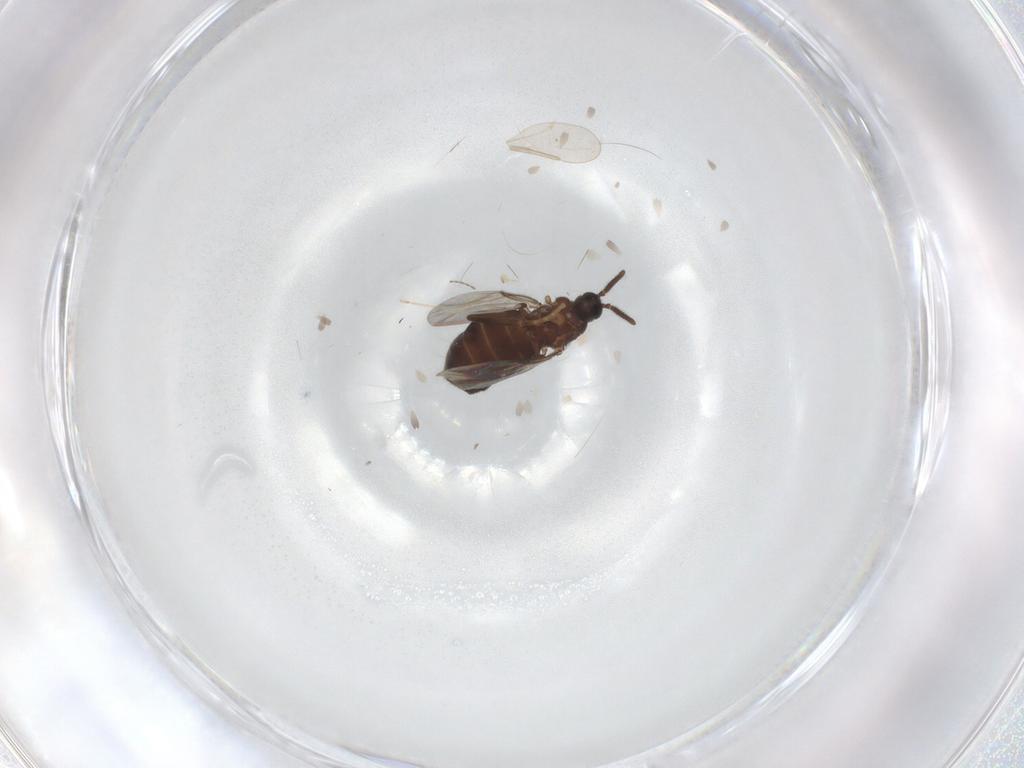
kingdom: Animalia
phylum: Arthropoda
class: Insecta
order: Diptera
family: Scatopsidae
